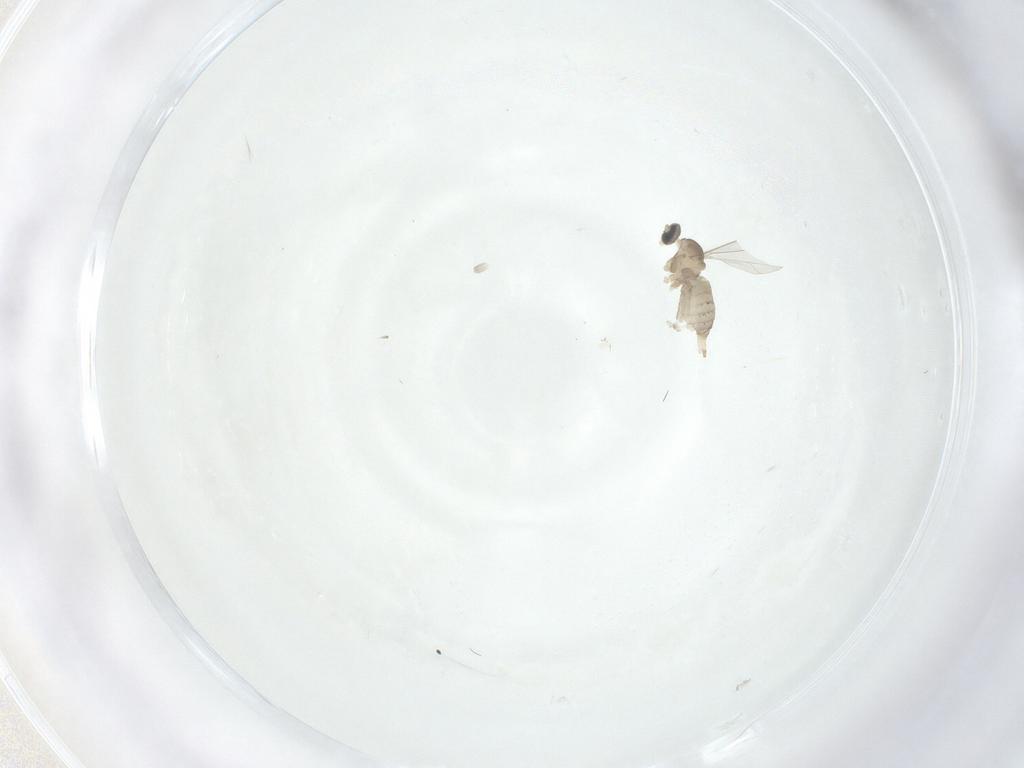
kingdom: Animalia
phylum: Arthropoda
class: Insecta
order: Diptera
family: Cecidomyiidae
